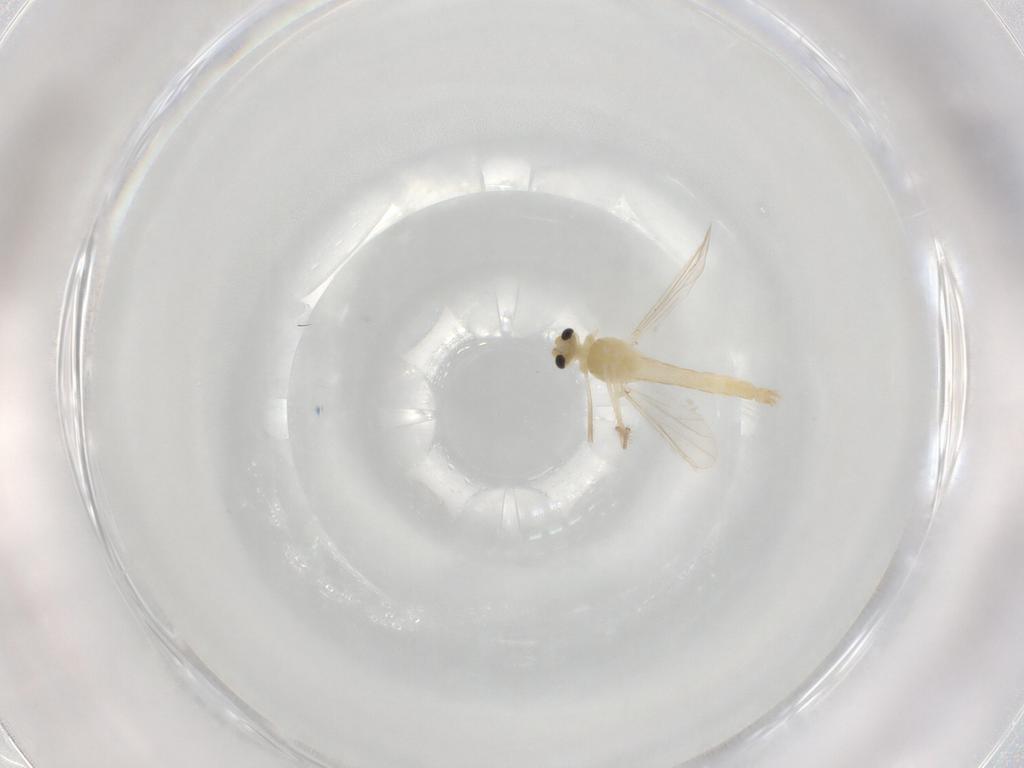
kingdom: Animalia
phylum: Arthropoda
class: Insecta
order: Diptera
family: Chironomidae
